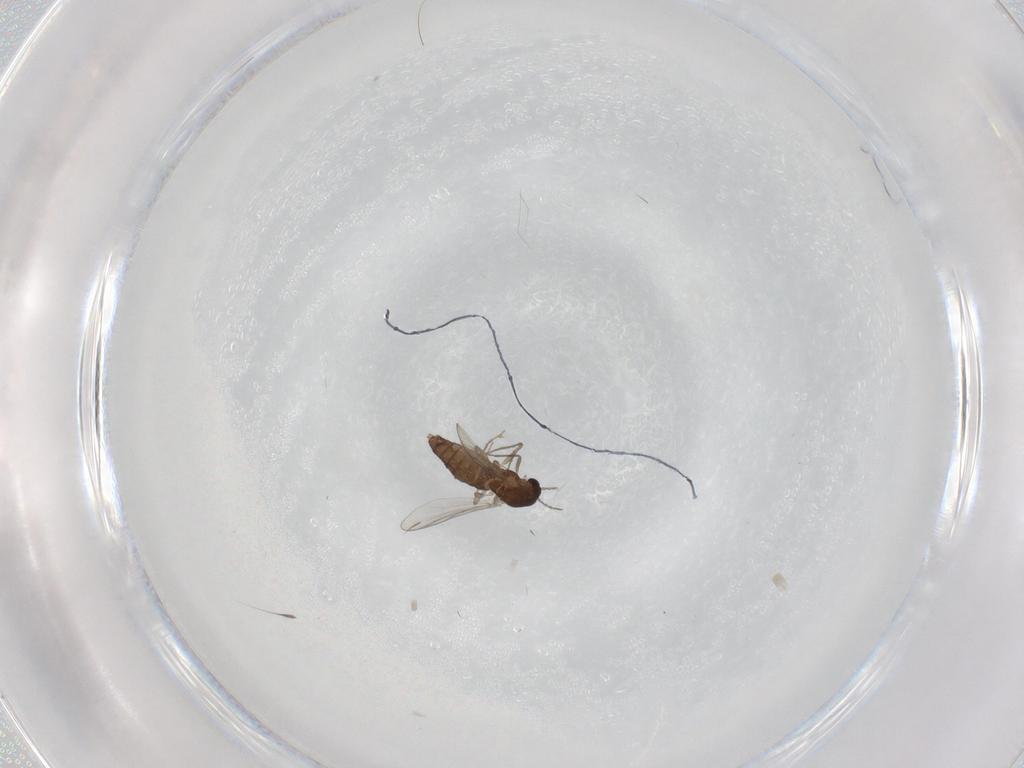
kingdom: Animalia
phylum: Arthropoda
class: Insecta
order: Diptera
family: Chironomidae
